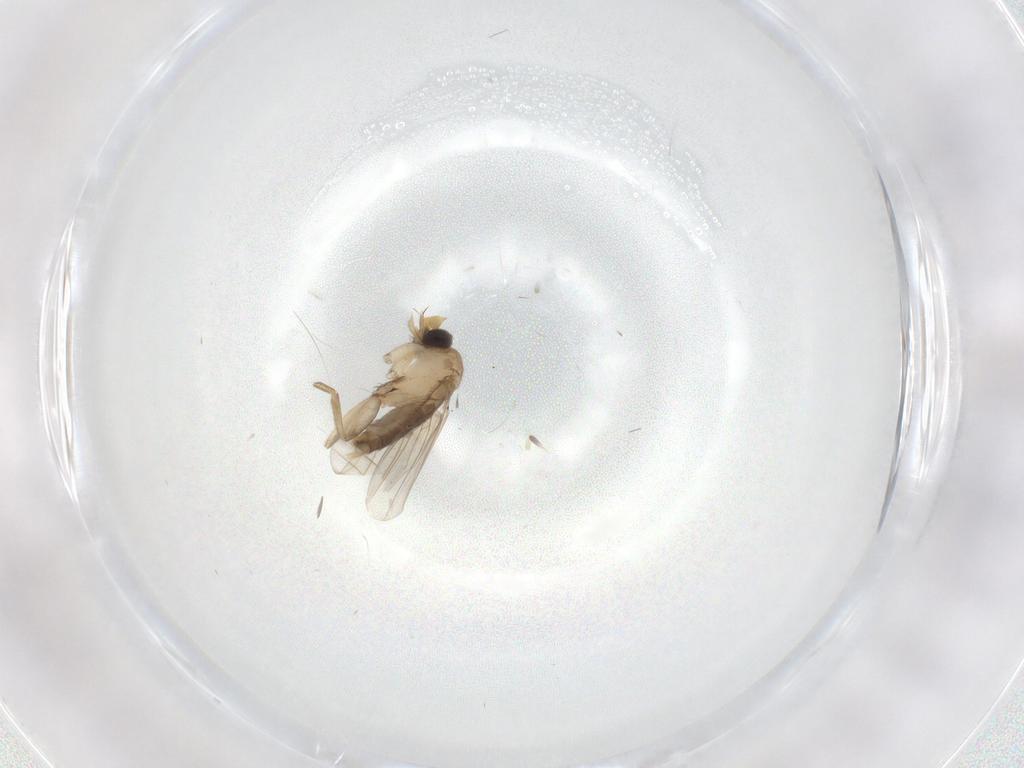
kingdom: Animalia
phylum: Arthropoda
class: Insecta
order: Diptera
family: Phoridae
